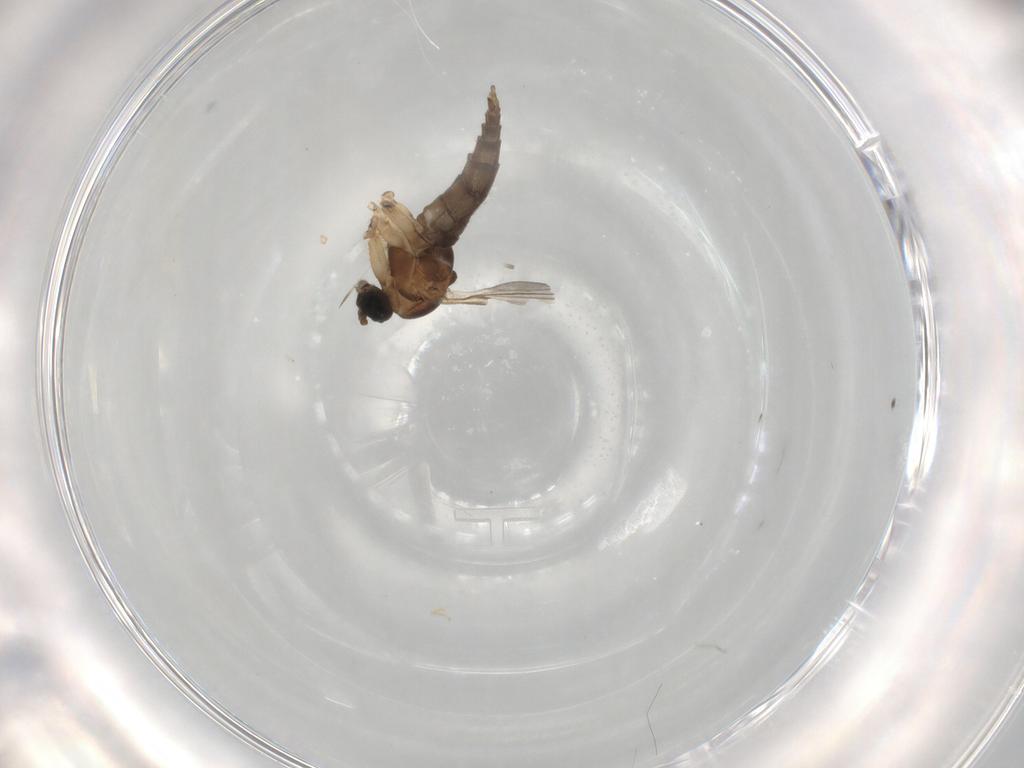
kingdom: Animalia
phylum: Arthropoda
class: Insecta
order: Diptera
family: Sciaridae
